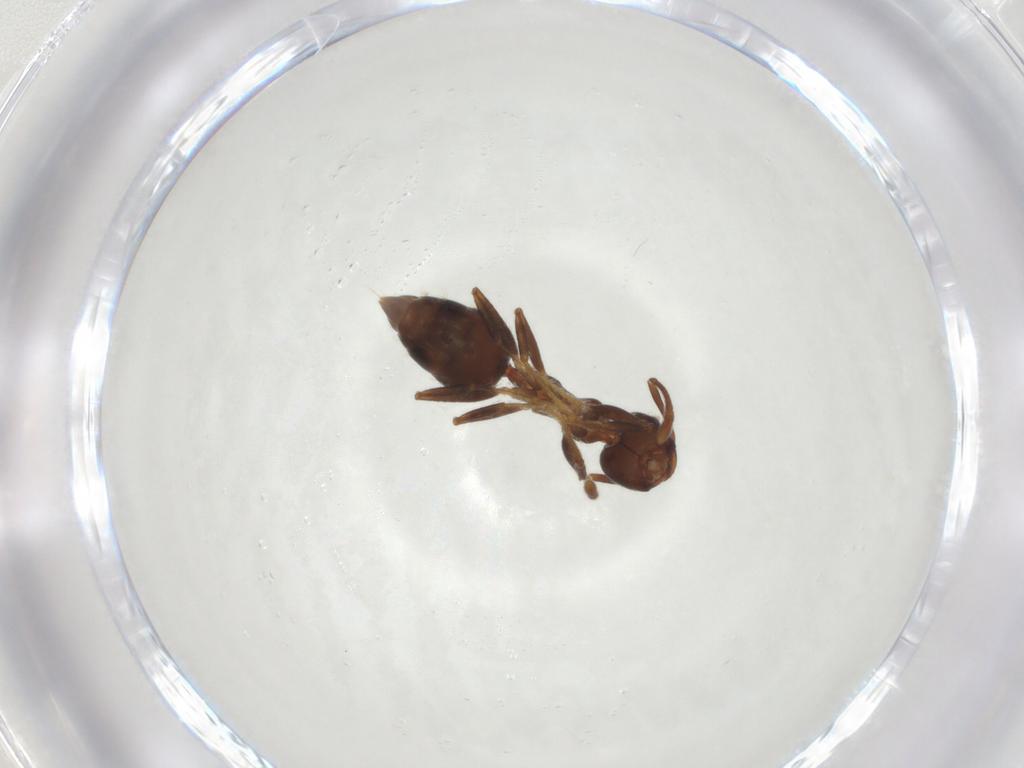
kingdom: Animalia
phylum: Arthropoda
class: Insecta
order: Hymenoptera
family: Formicidae
